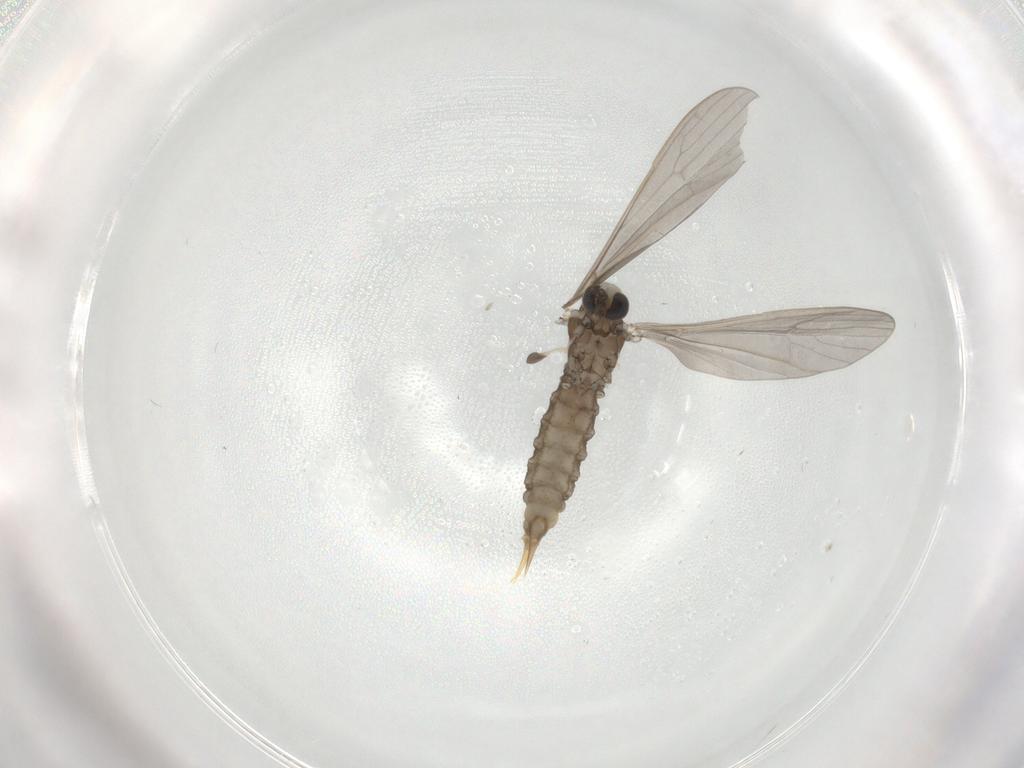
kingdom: Animalia
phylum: Arthropoda
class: Insecta
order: Diptera
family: Limoniidae
